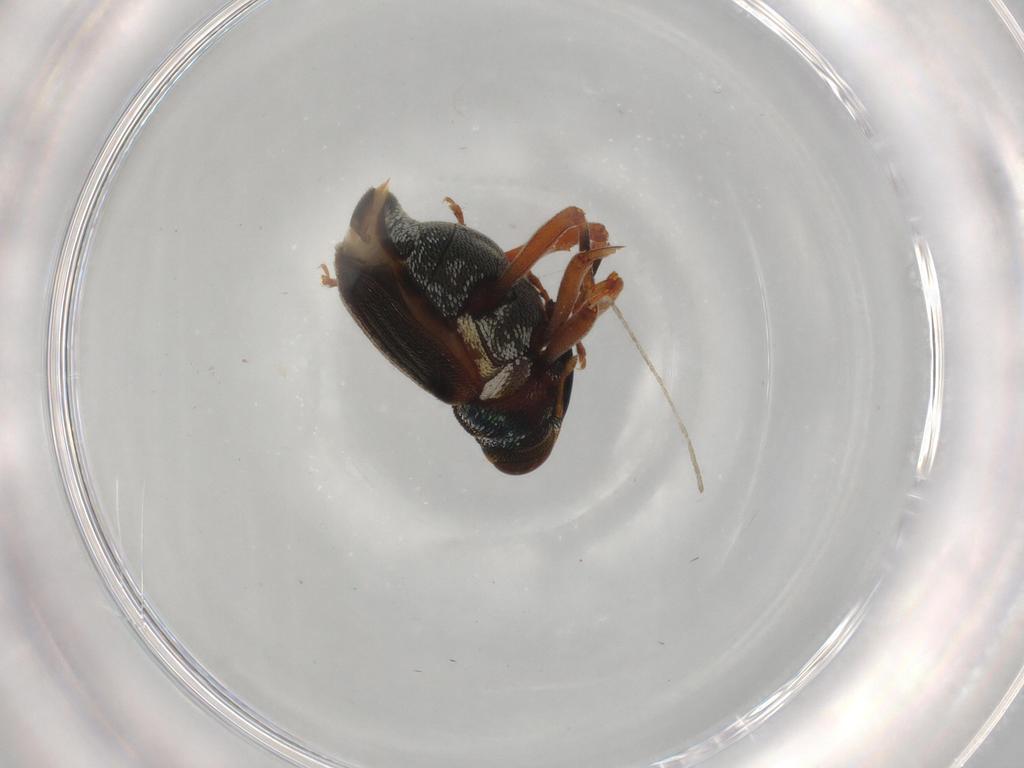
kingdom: Animalia
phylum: Arthropoda
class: Insecta
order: Coleoptera
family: Curculionidae
